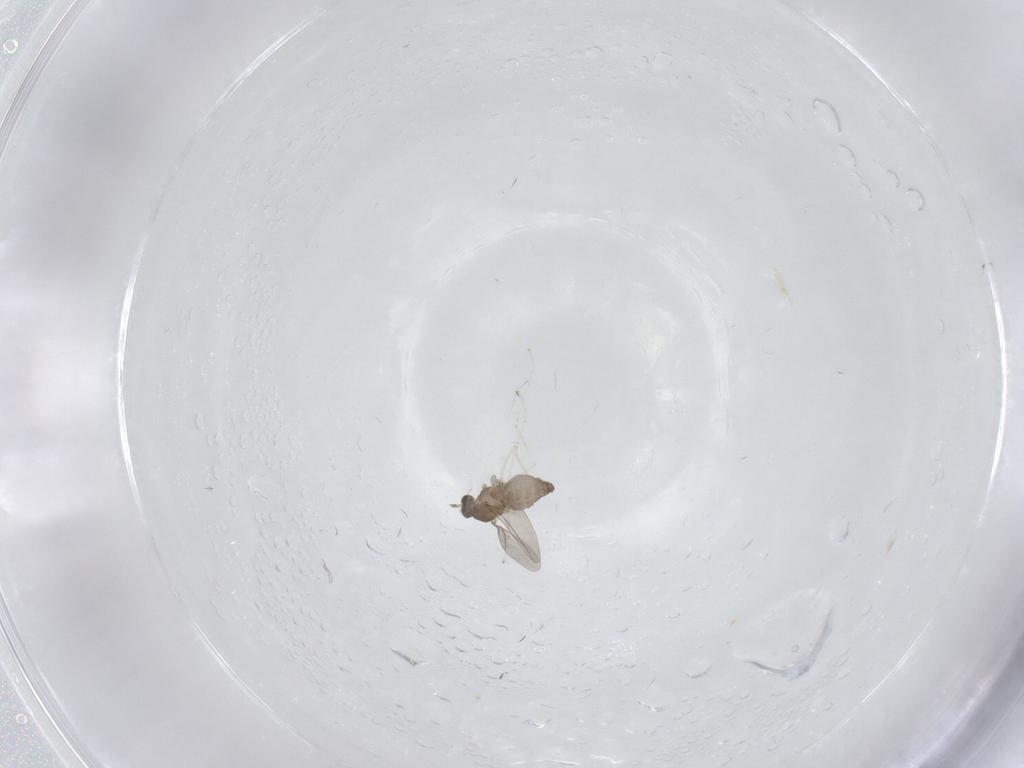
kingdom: Animalia
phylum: Arthropoda
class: Insecta
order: Diptera
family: Cecidomyiidae
